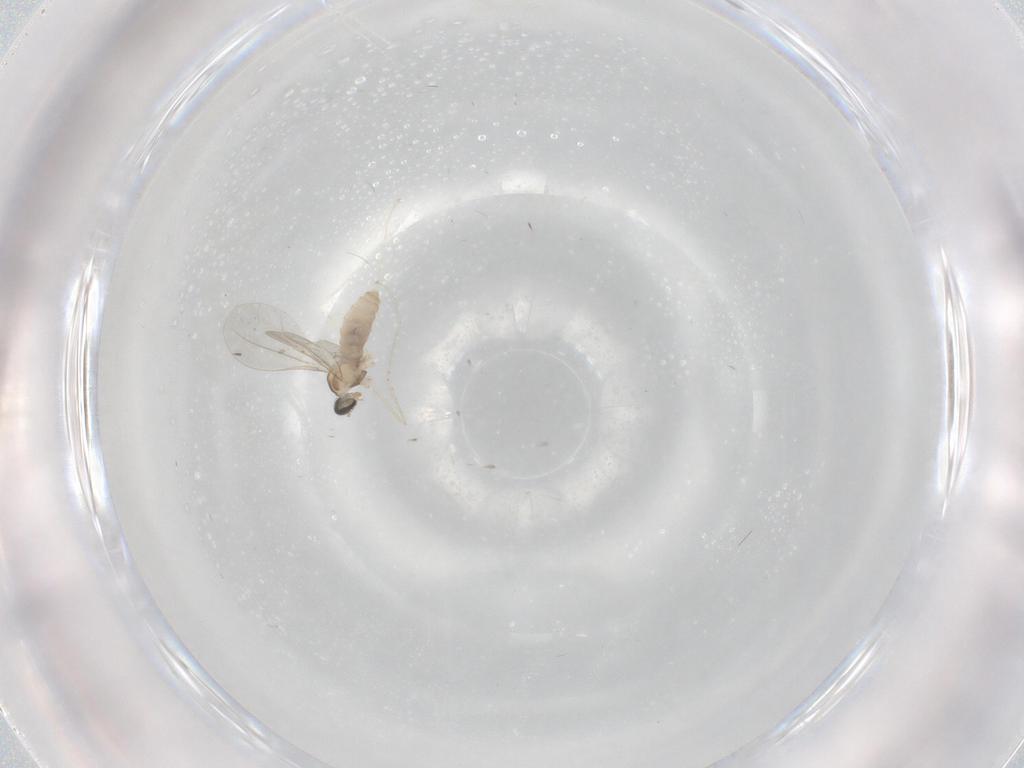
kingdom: Animalia
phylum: Arthropoda
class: Insecta
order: Diptera
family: Cecidomyiidae
